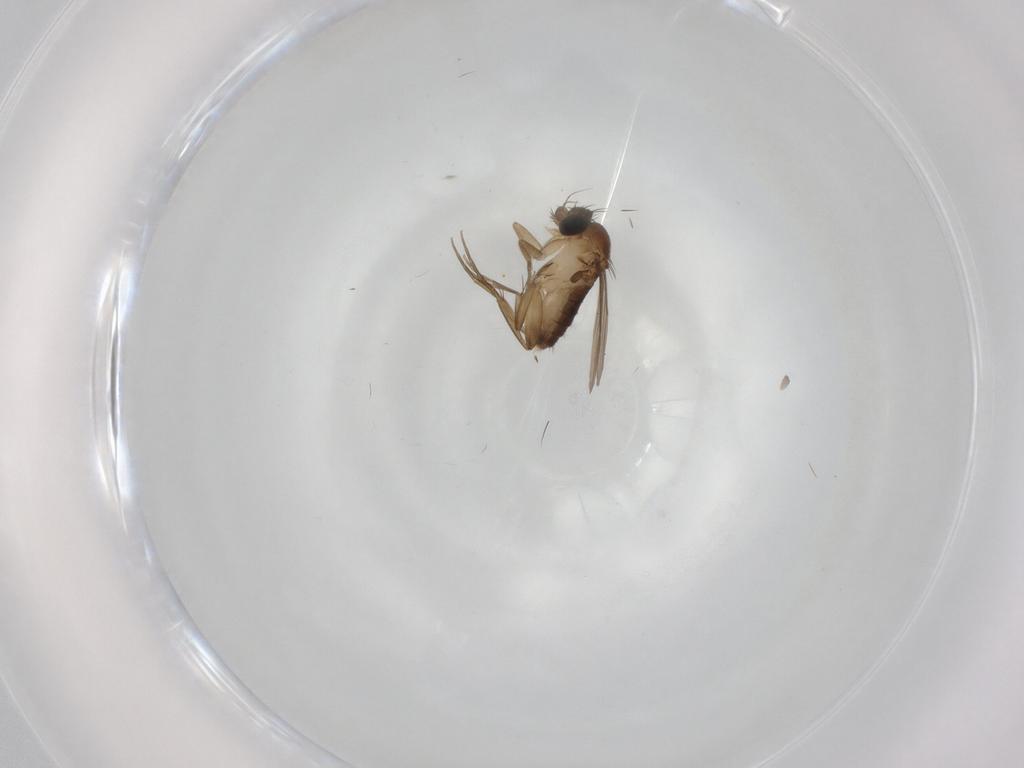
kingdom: Animalia
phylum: Arthropoda
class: Insecta
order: Diptera
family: Phoridae
